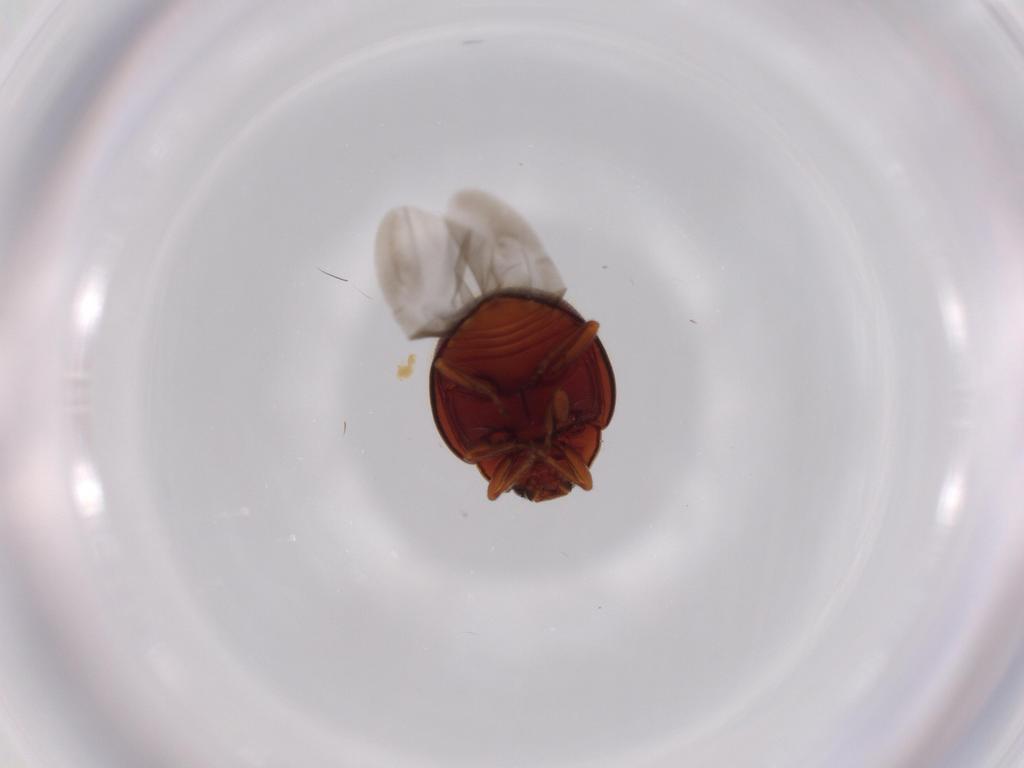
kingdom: Animalia
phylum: Arthropoda
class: Insecta
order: Coleoptera
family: Coccinellidae
